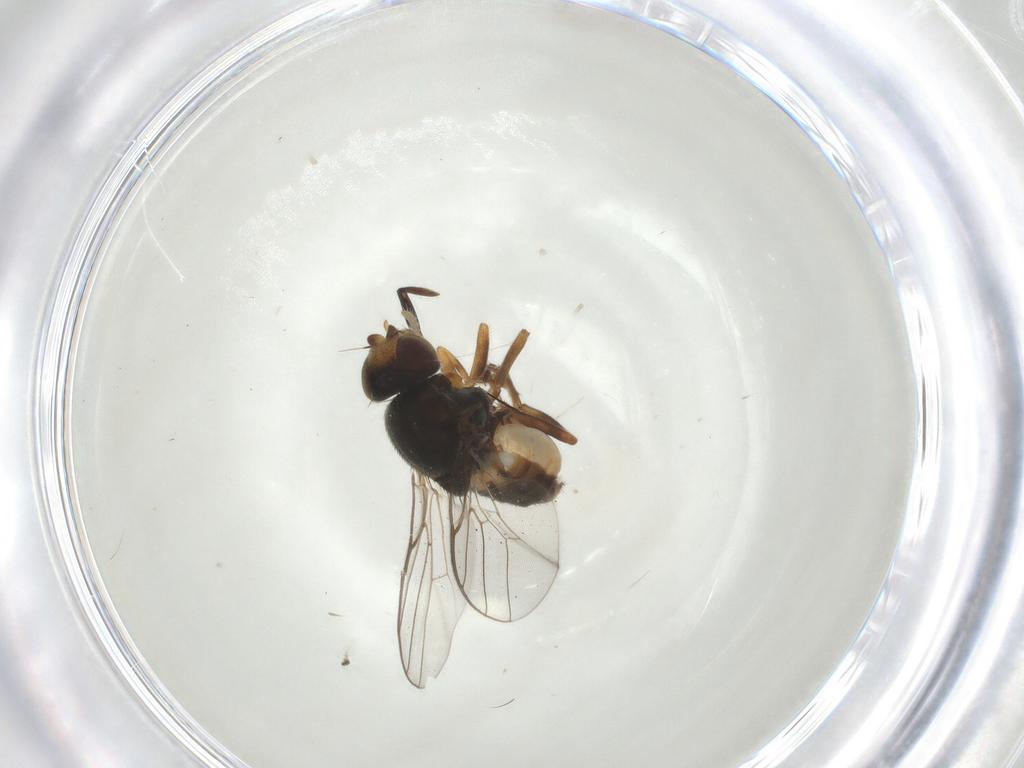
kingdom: Animalia
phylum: Arthropoda
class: Insecta
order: Diptera
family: Chloropidae
